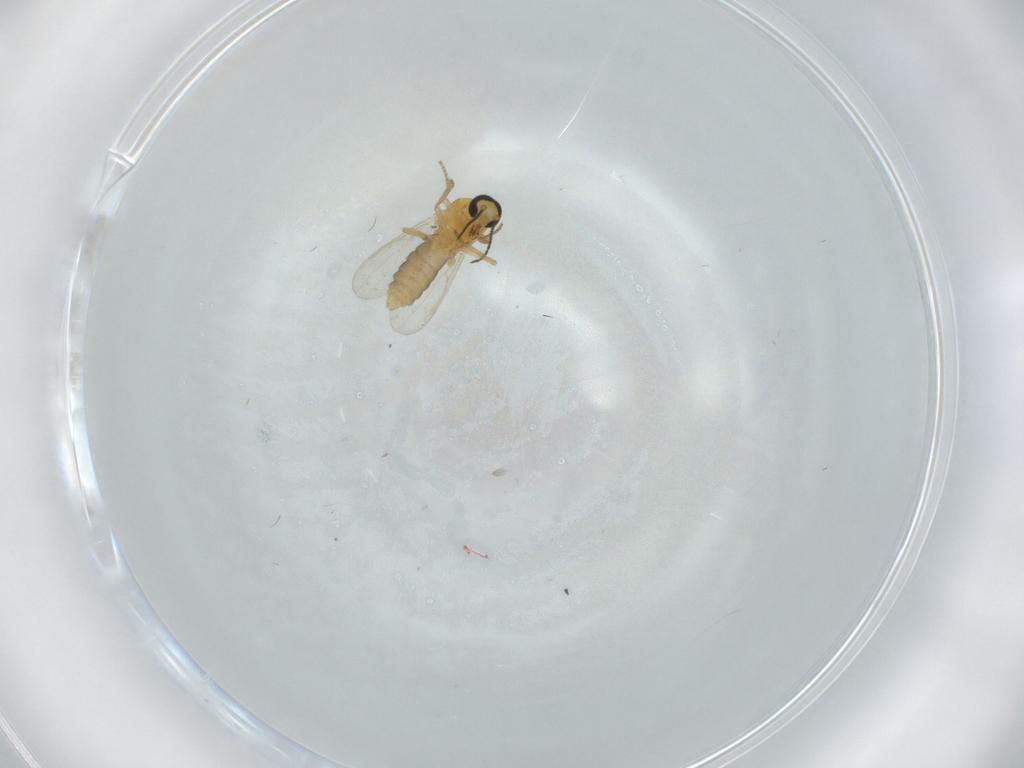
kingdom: Animalia
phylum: Arthropoda
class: Insecta
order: Diptera
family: Ceratopogonidae
